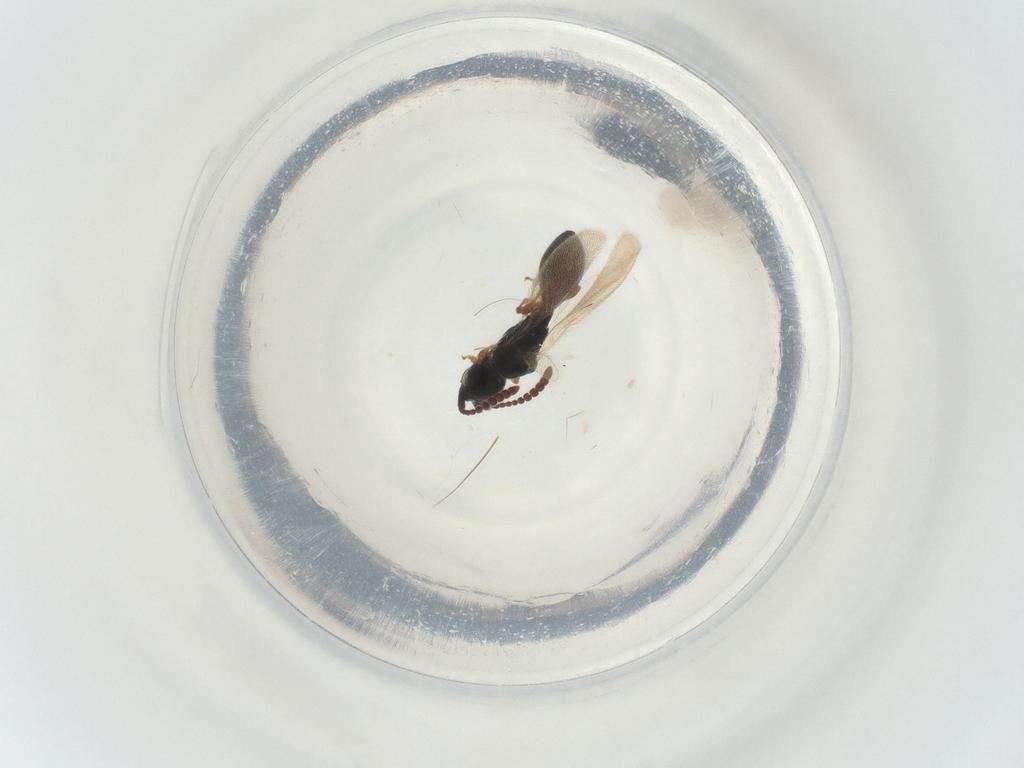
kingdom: Animalia
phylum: Arthropoda
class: Insecta
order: Hymenoptera
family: Diapriidae
